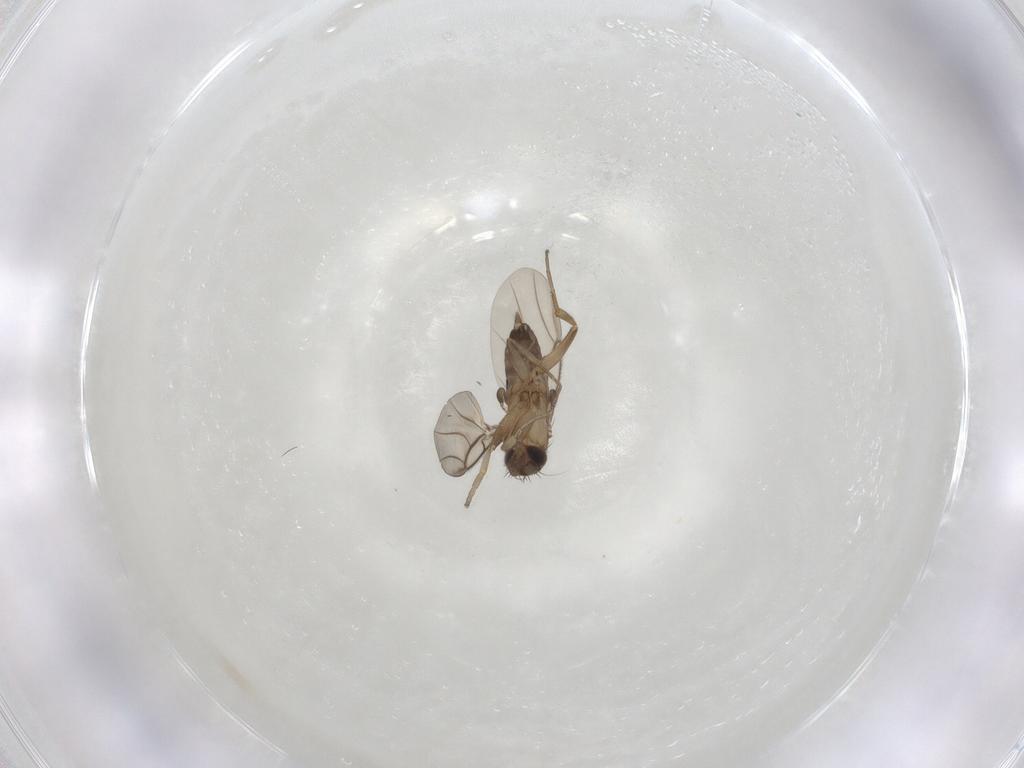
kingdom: Animalia
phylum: Arthropoda
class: Insecta
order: Diptera
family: Phoridae
